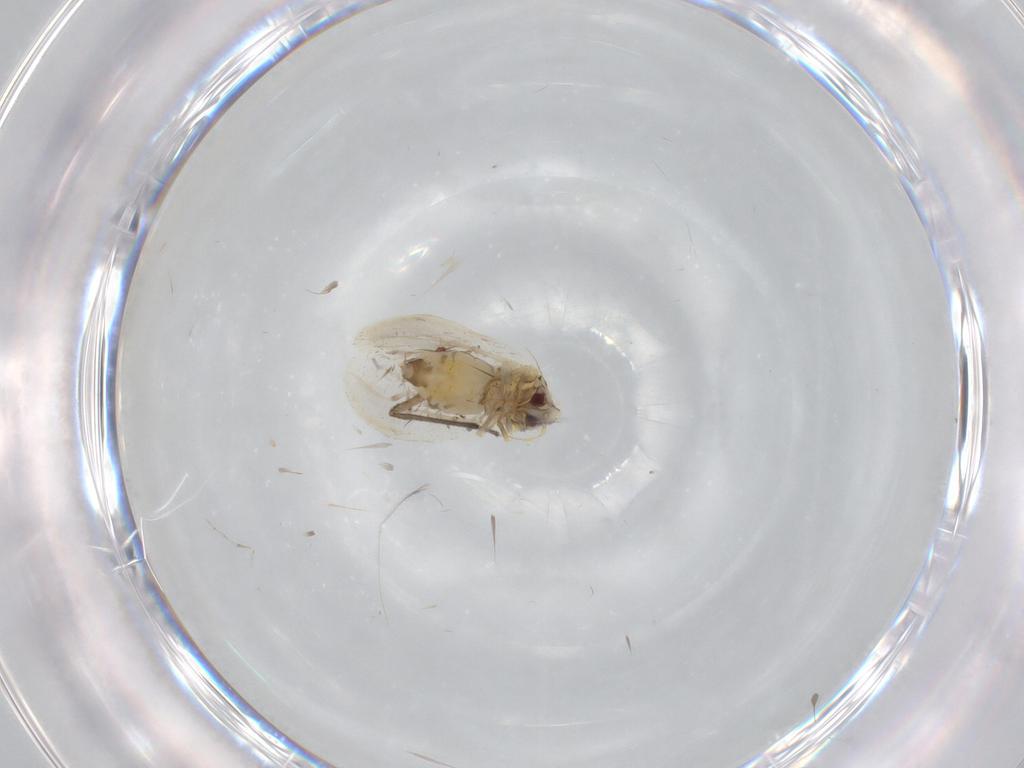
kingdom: Animalia
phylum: Arthropoda
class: Insecta
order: Hemiptera
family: Aleyrodidae
